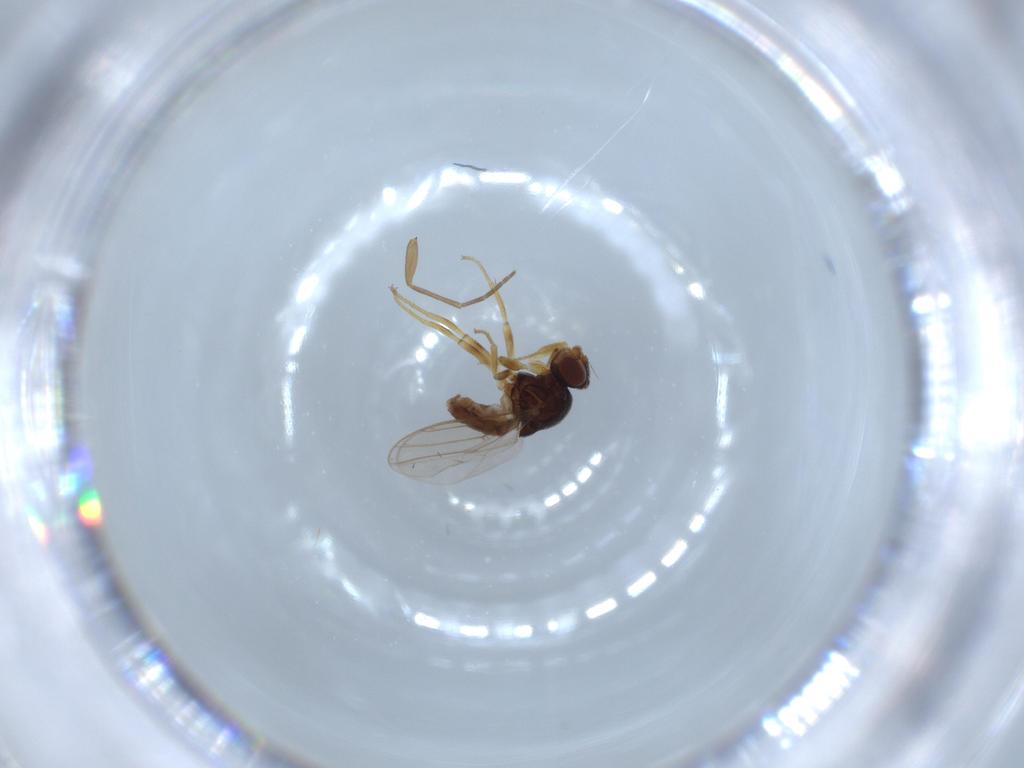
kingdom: Animalia
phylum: Arthropoda
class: Insecta
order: Diptera
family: Chloropidae
